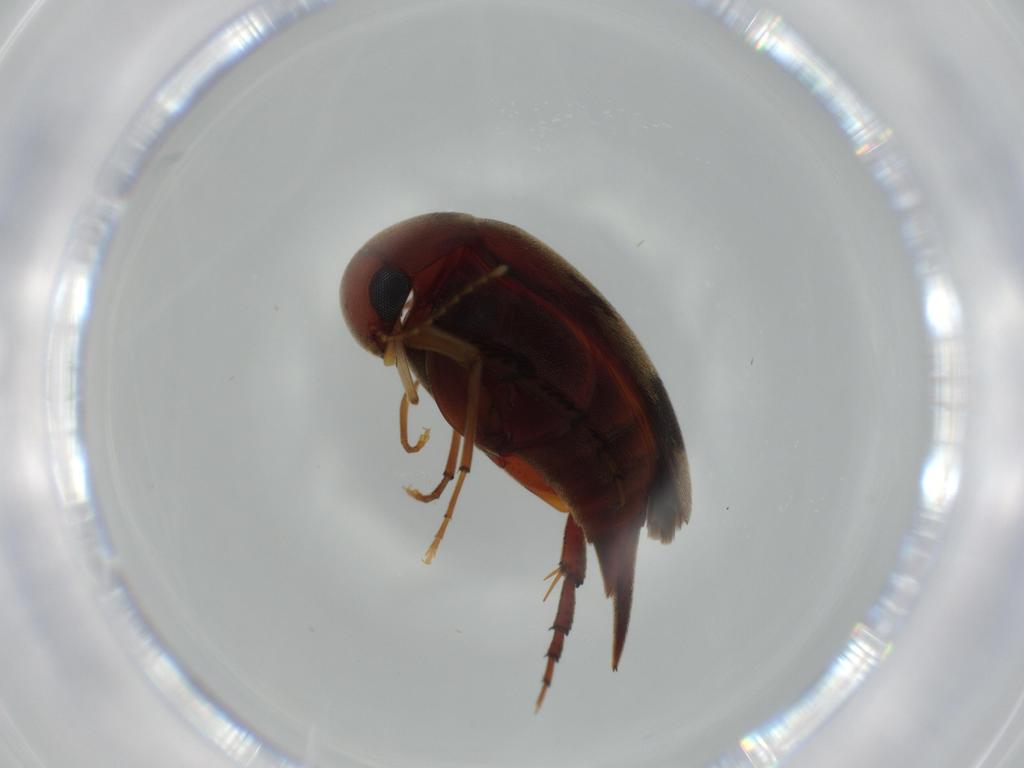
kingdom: Animalia
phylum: Arthropoda
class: Insecta
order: Coleoptera
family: Mordellidae
